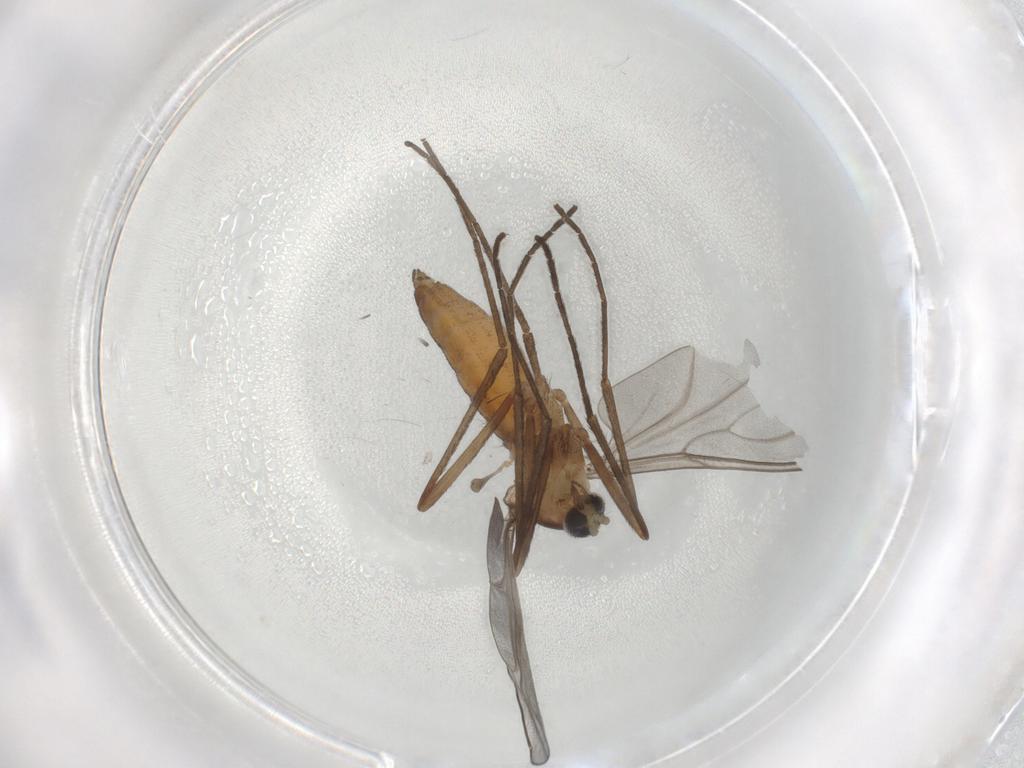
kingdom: Animalia
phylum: Arthropoda
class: Insecta
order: Diptera
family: Cecidomyiidae
